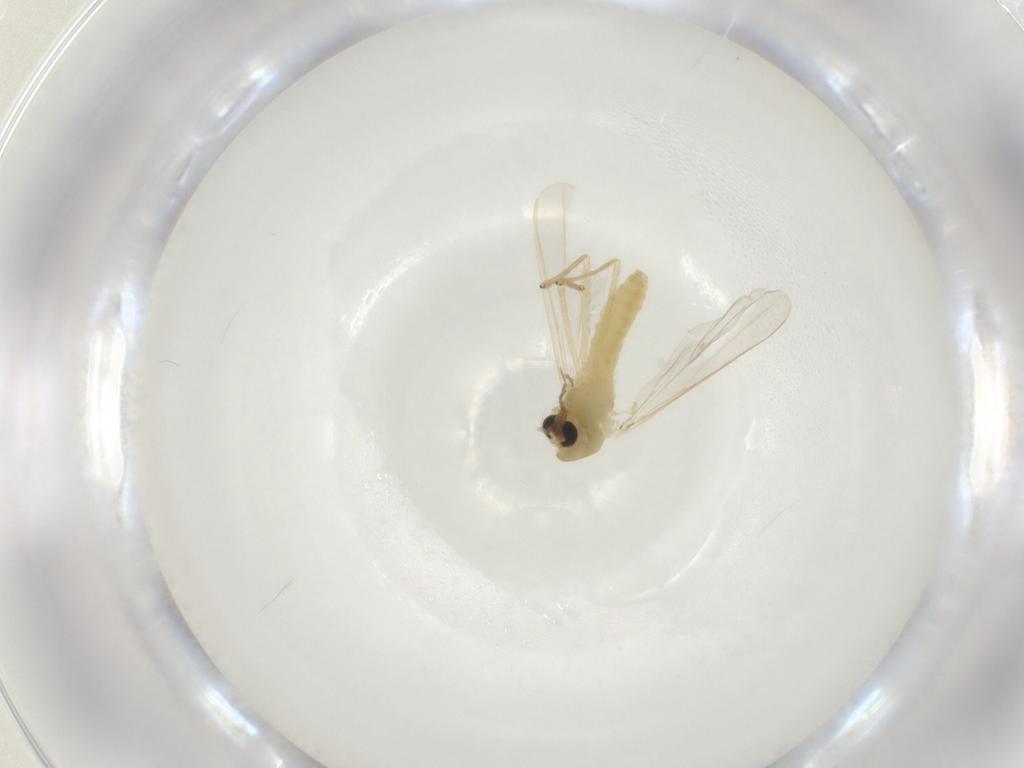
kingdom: Animalia
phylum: Arthropoda
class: Insecta
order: Diptera
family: Chironomidae
